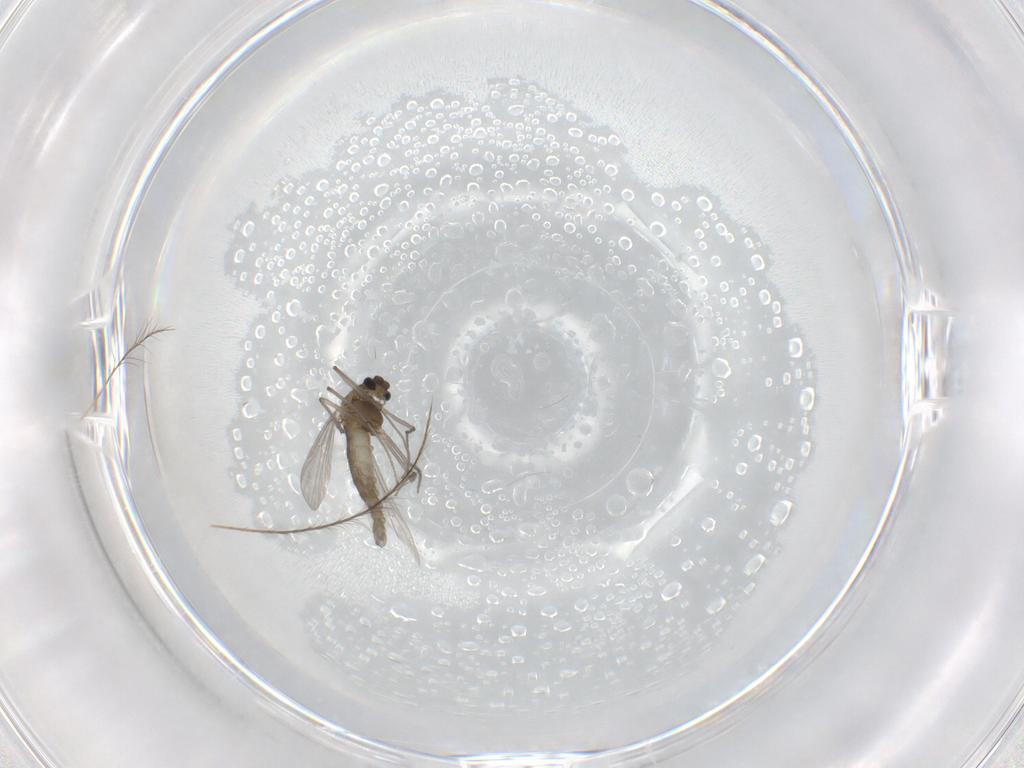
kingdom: Animalia
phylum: Arthropoda
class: Insecta
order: Diptera
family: Chironomidae
